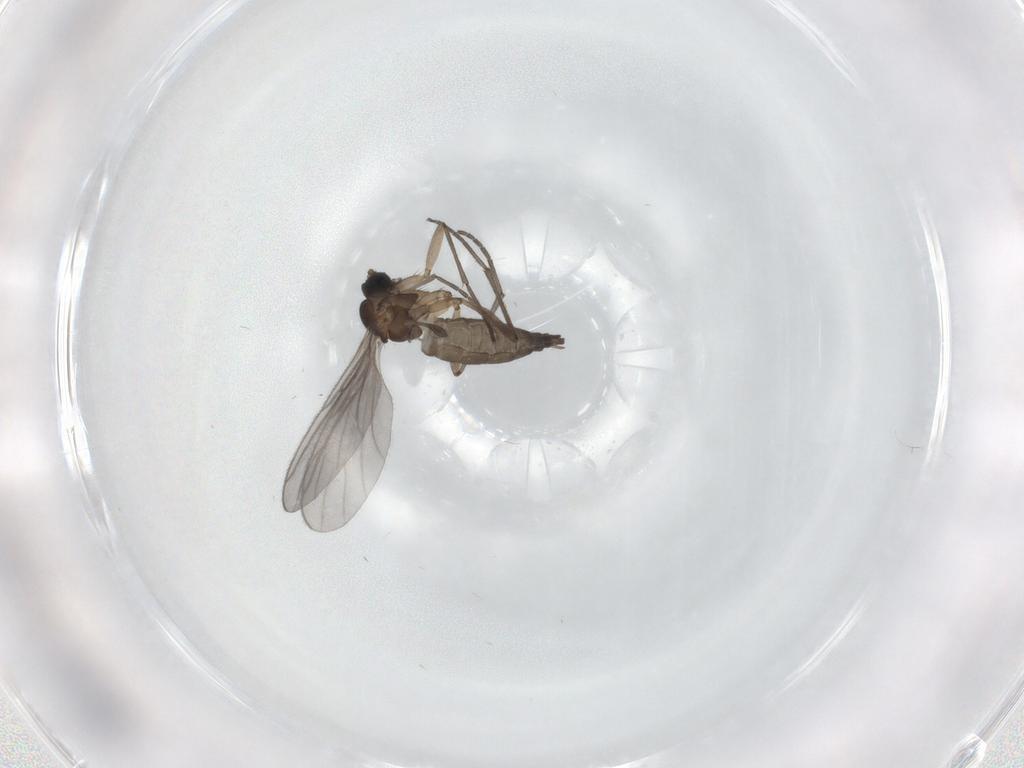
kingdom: Animalia
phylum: Arthropoda
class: Insecta
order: Diptera
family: Sciaridae
